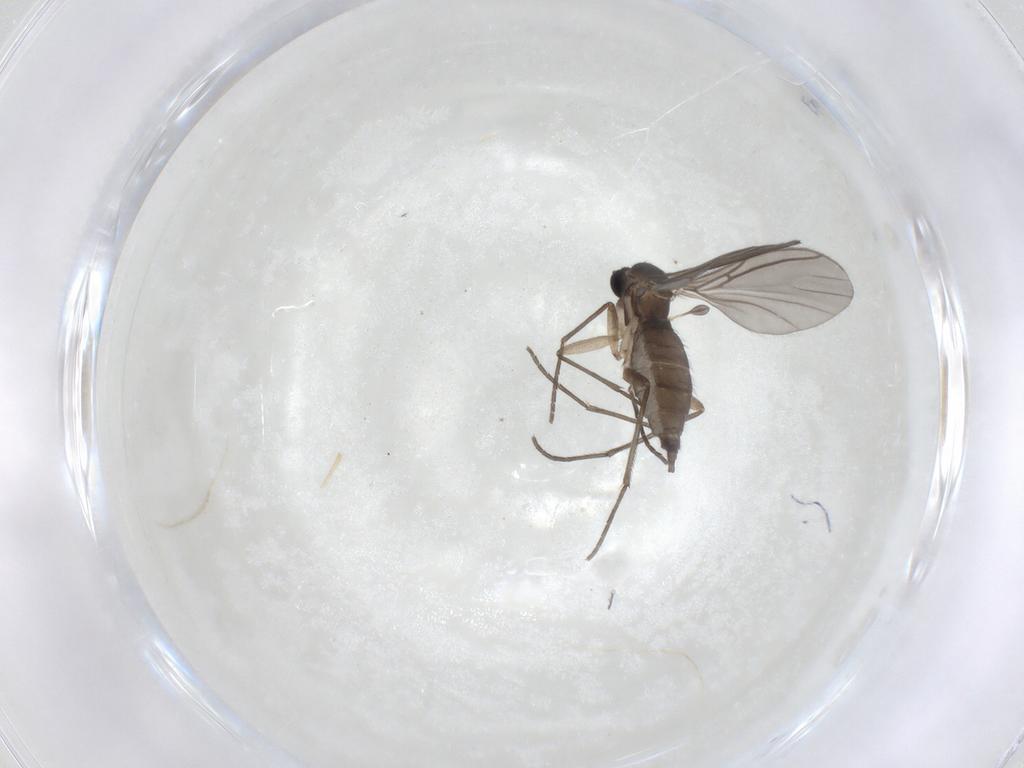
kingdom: Animalia
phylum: Arthropoda
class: Insecta
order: Diptera
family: Sciaridae
